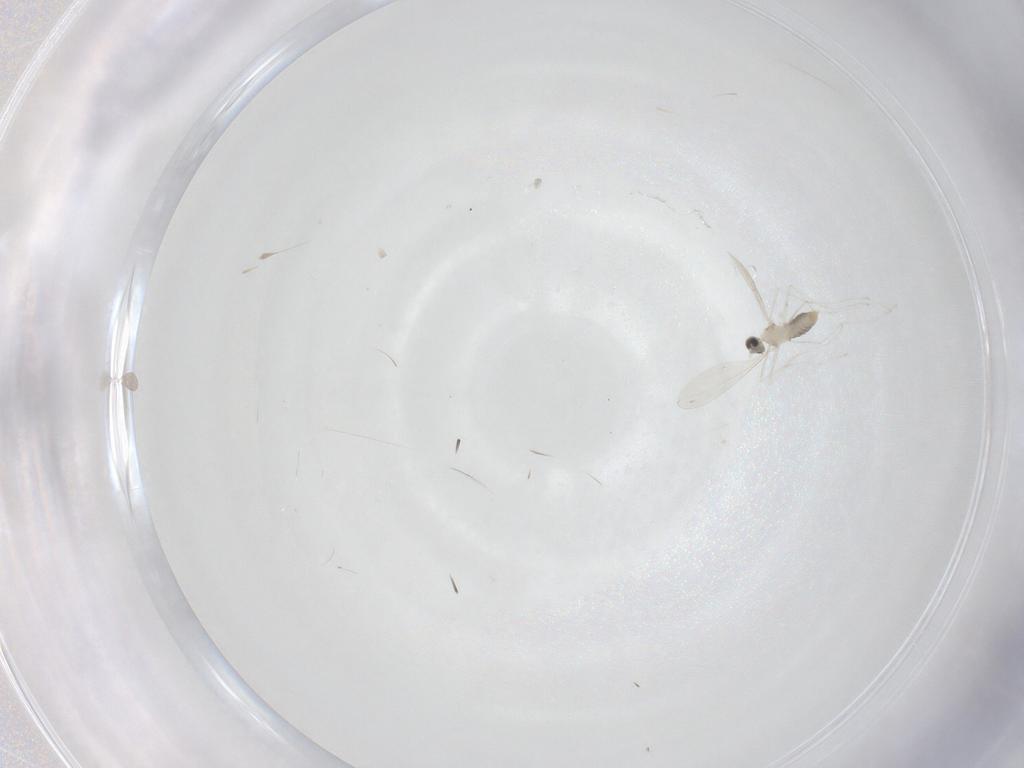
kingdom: Animalia
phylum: Arthropoda
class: Insecta
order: Diptera
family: Cecidomyiidae
